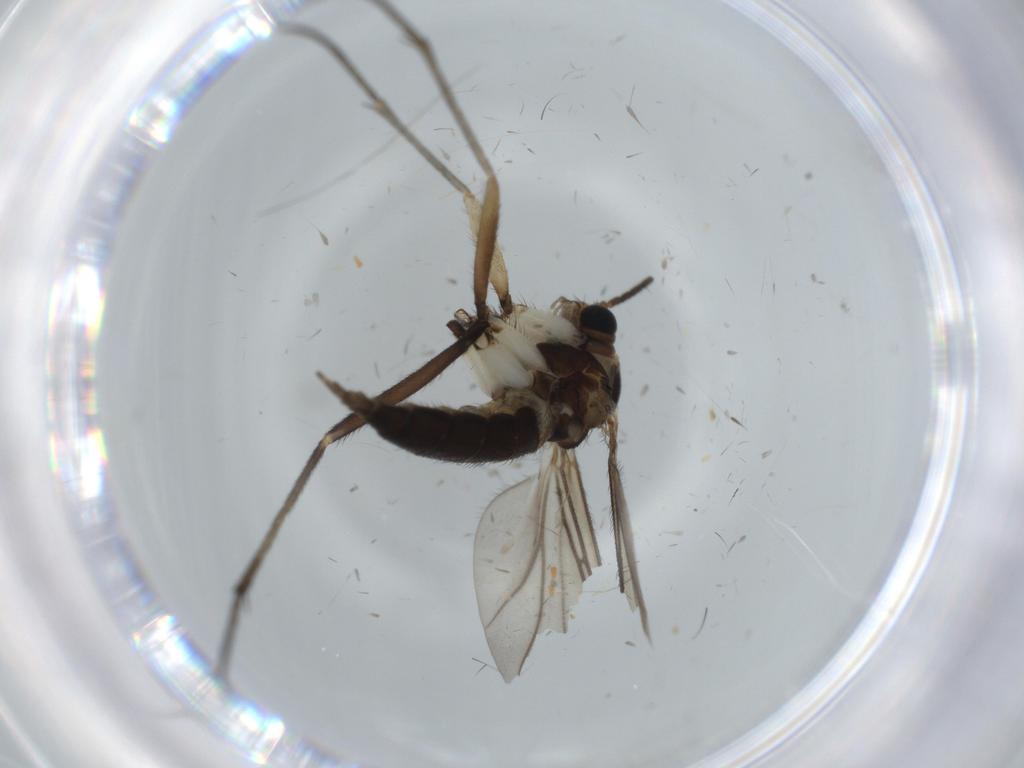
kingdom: Animalia
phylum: Arthropoda
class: Insecta
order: Diptera
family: Sciaridae
